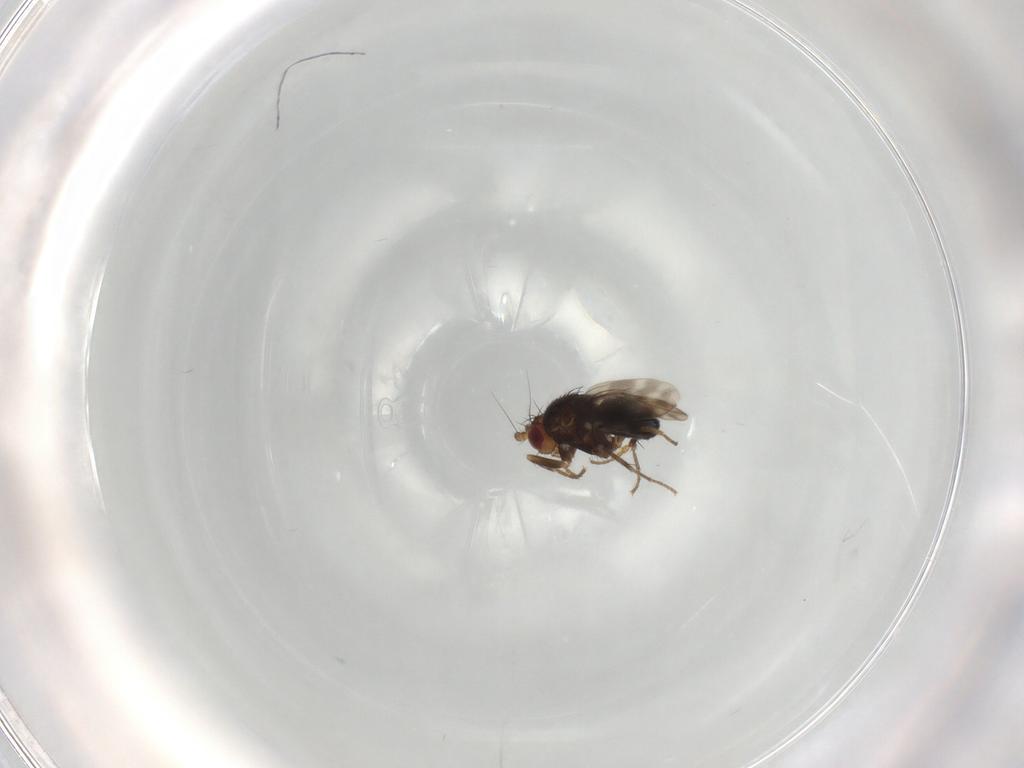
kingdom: Animalia
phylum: Arthropoda
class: Insecta
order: Diptera
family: Sphaeroceridae
